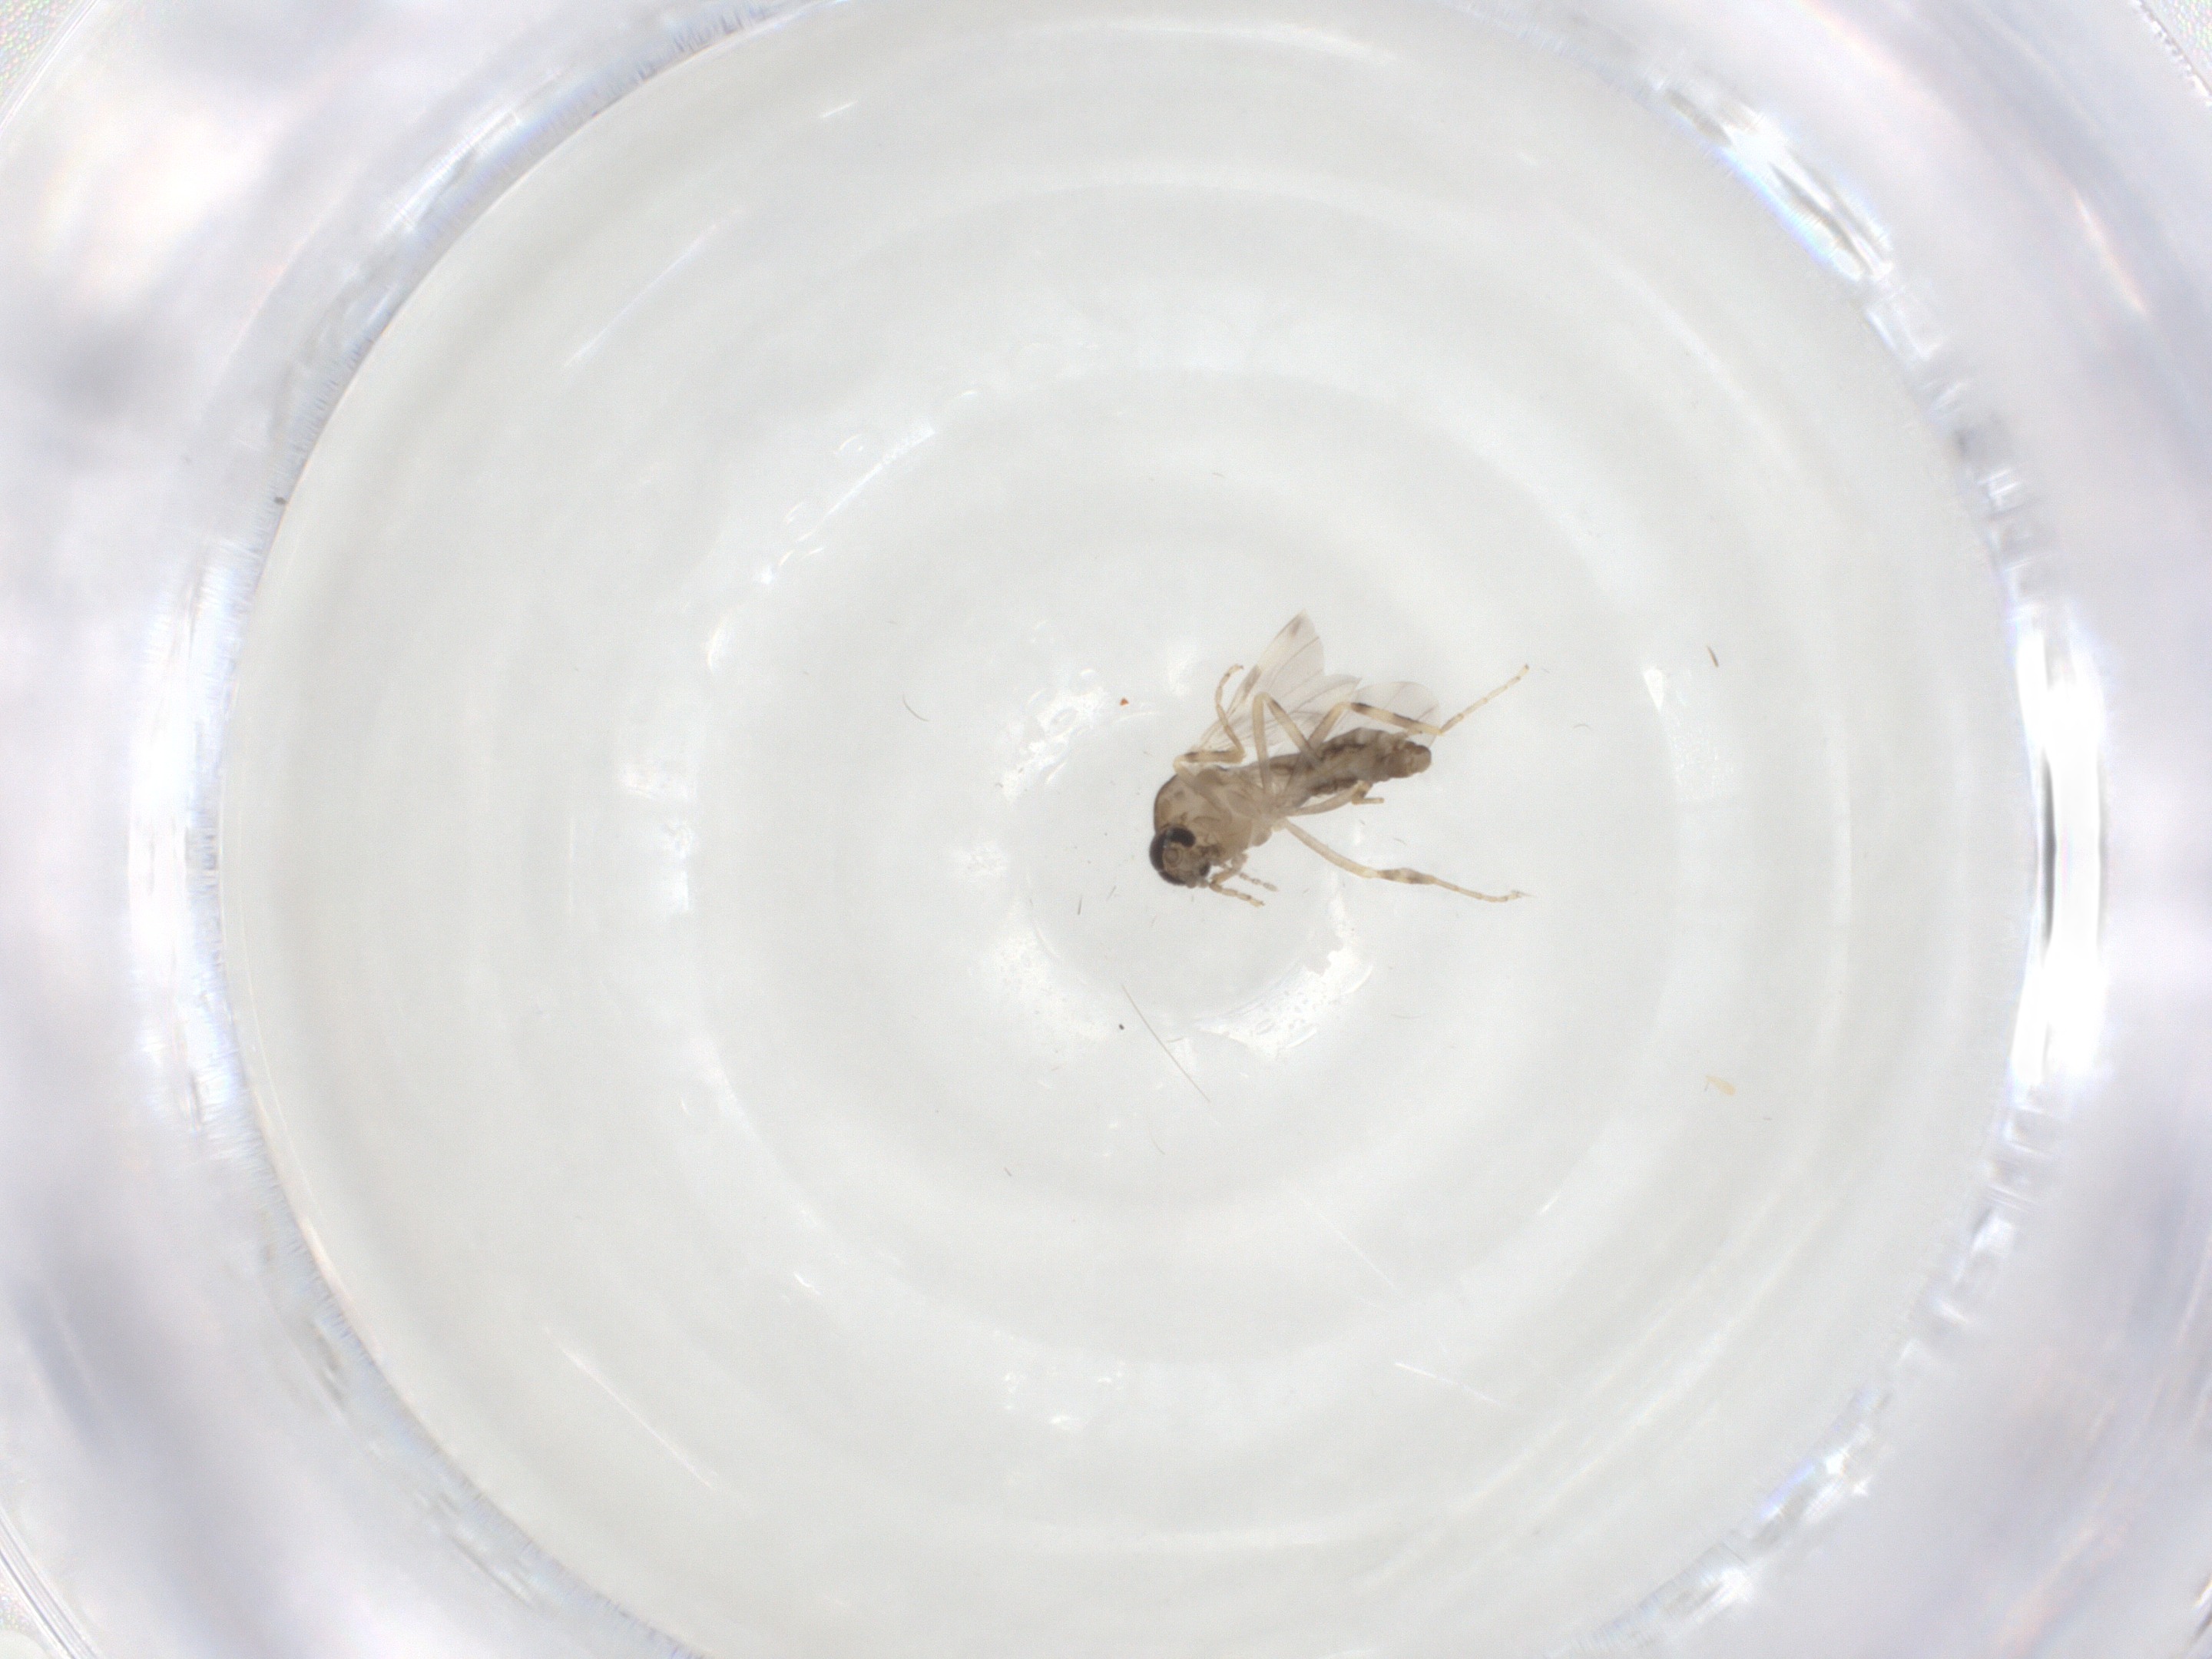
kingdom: Animalia
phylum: Arthropoda
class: Insecta
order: Diptera
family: Ceratopogonidae
